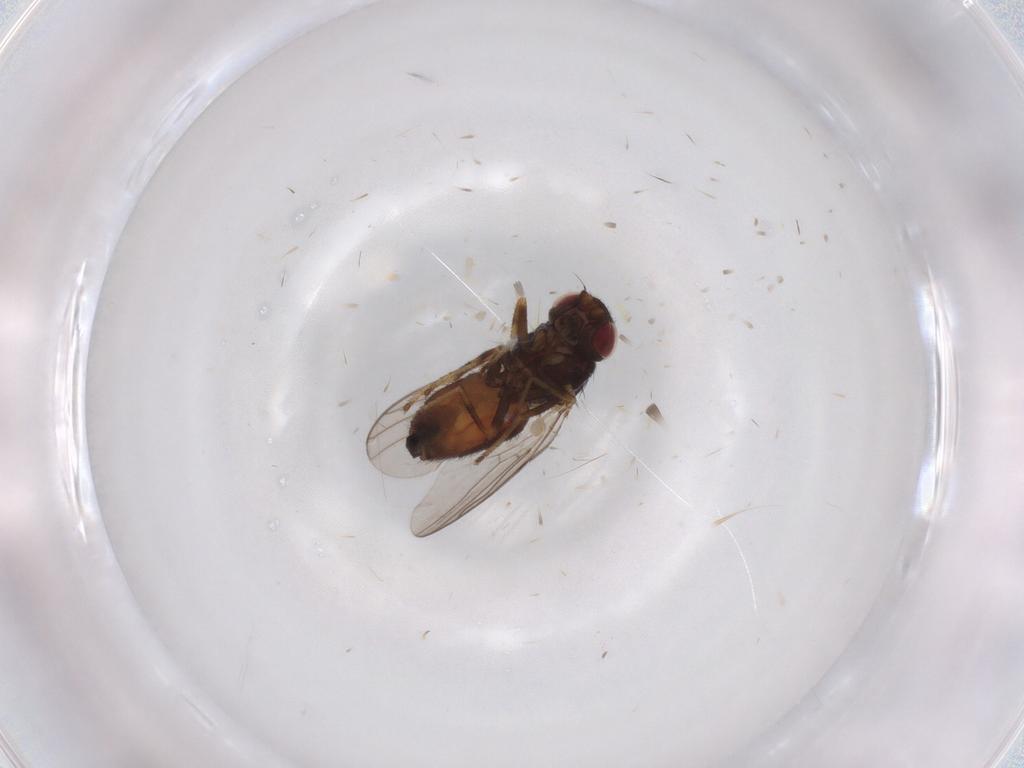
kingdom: Animalia
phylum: Arthropoda
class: Insecta
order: Diptera
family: Chloropidae
